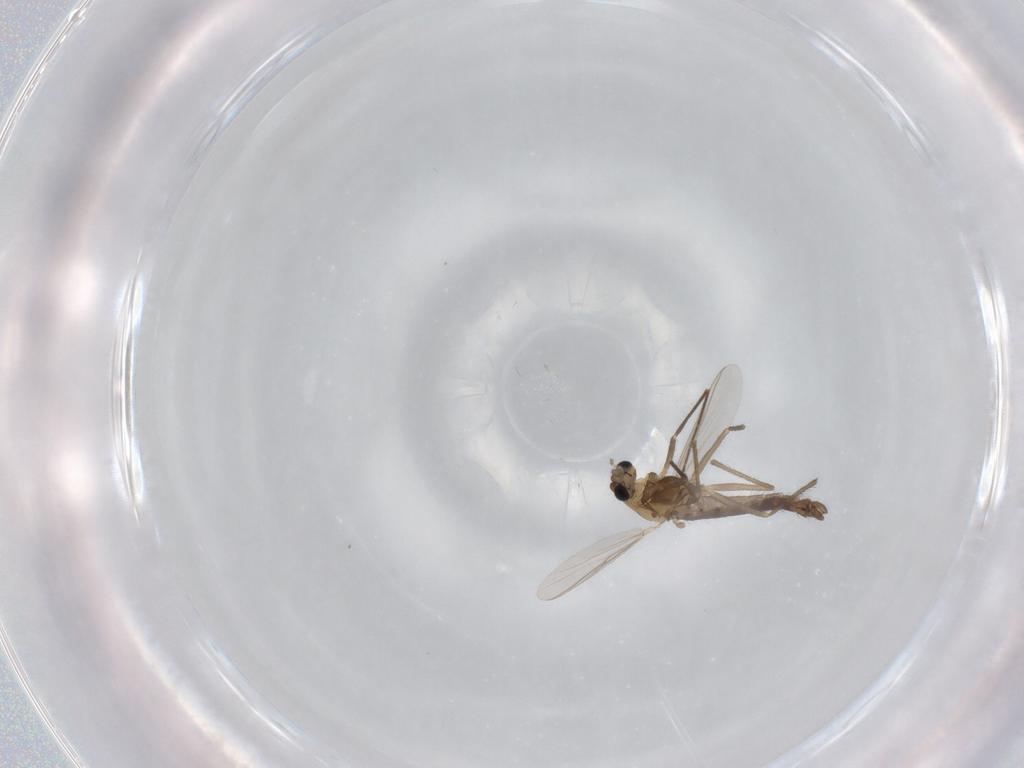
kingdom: Animalia
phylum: Arthropoda
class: Insecta
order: Diptera
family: Chironomidae
